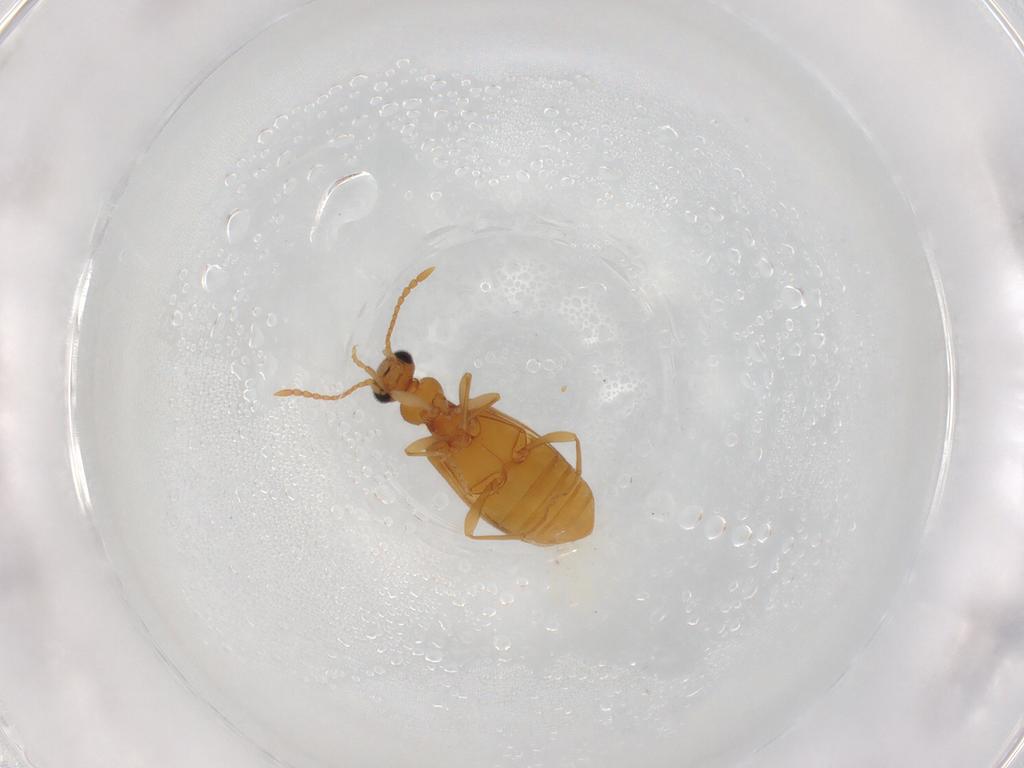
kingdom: Animalia
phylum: Arthropoda
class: Insecta
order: Coleoptera
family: Anthicidae
